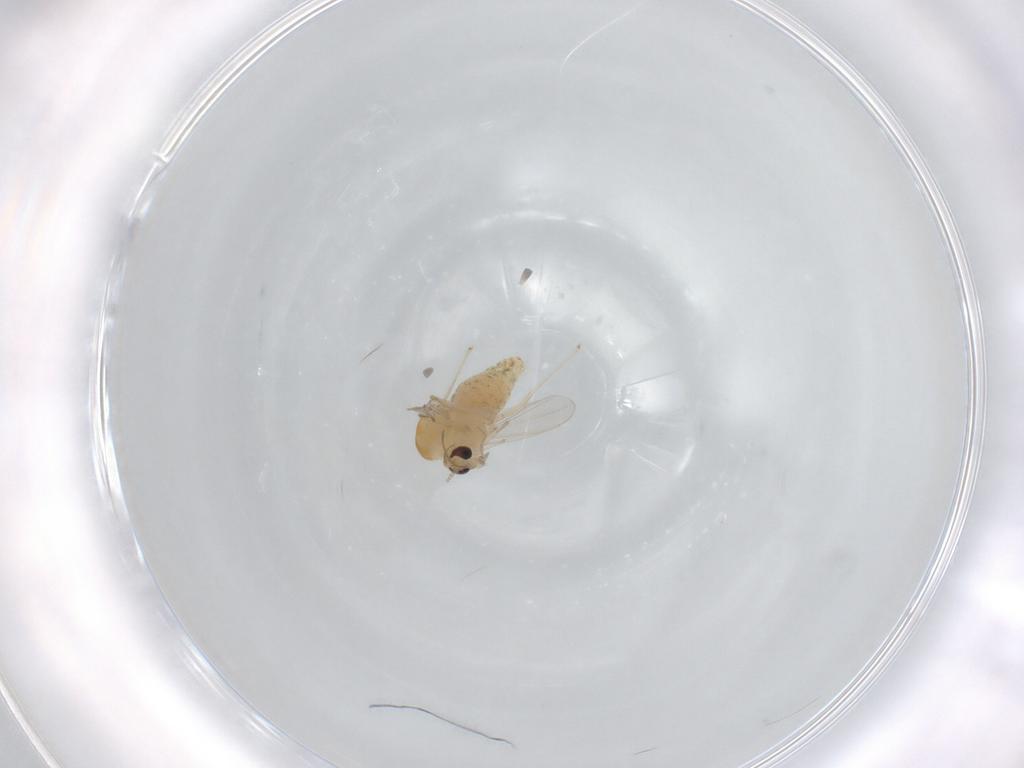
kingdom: Animalia
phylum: Arthropoda
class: Insecta
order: Diptera
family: Chironomidae
